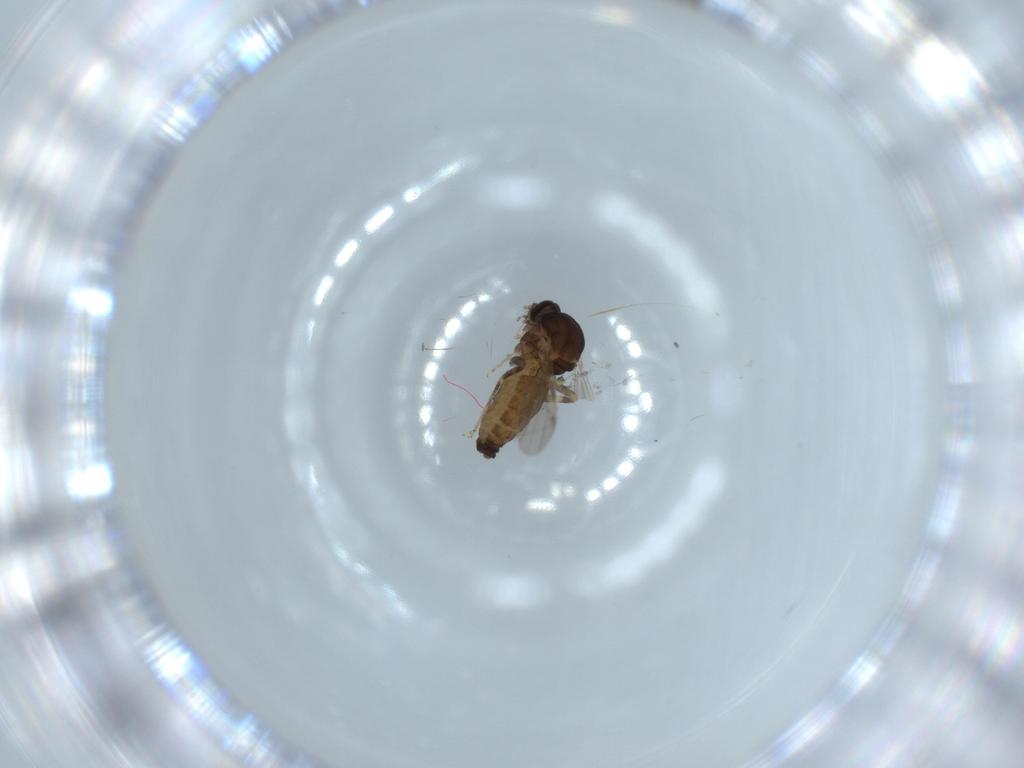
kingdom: Animalia
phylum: Arthropoda
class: Insecta
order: Diptera
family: Ceratopogonidae
